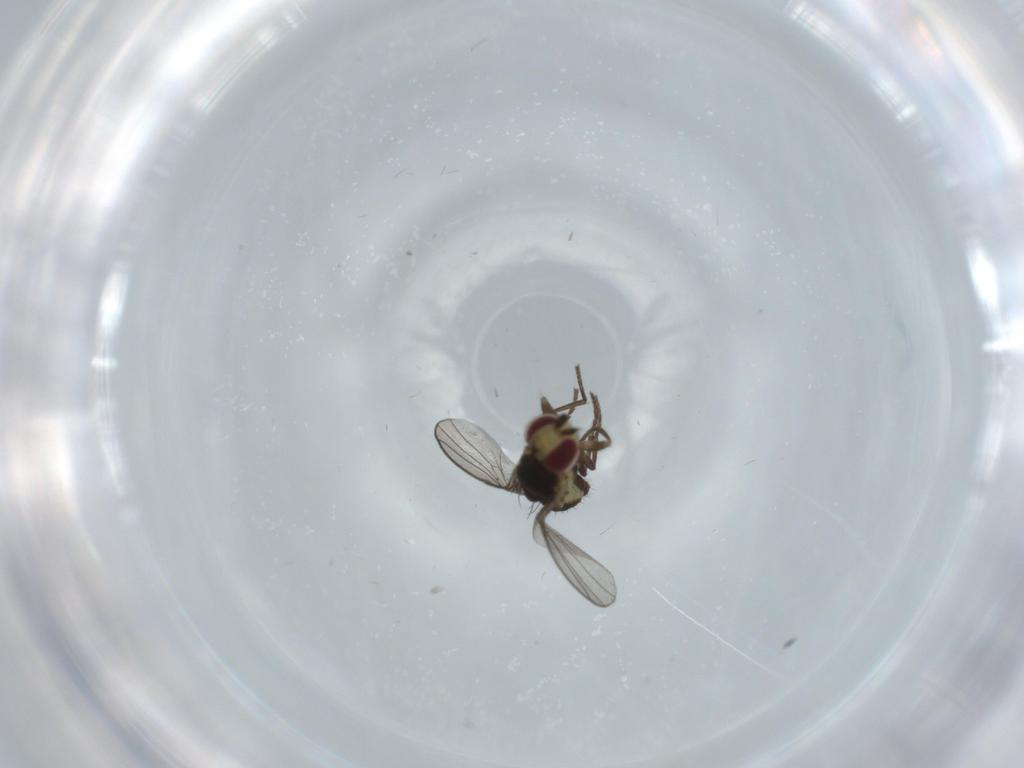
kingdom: Animalia
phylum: Arthropoda
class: Insecta
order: Diptera
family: Agromyzidae
